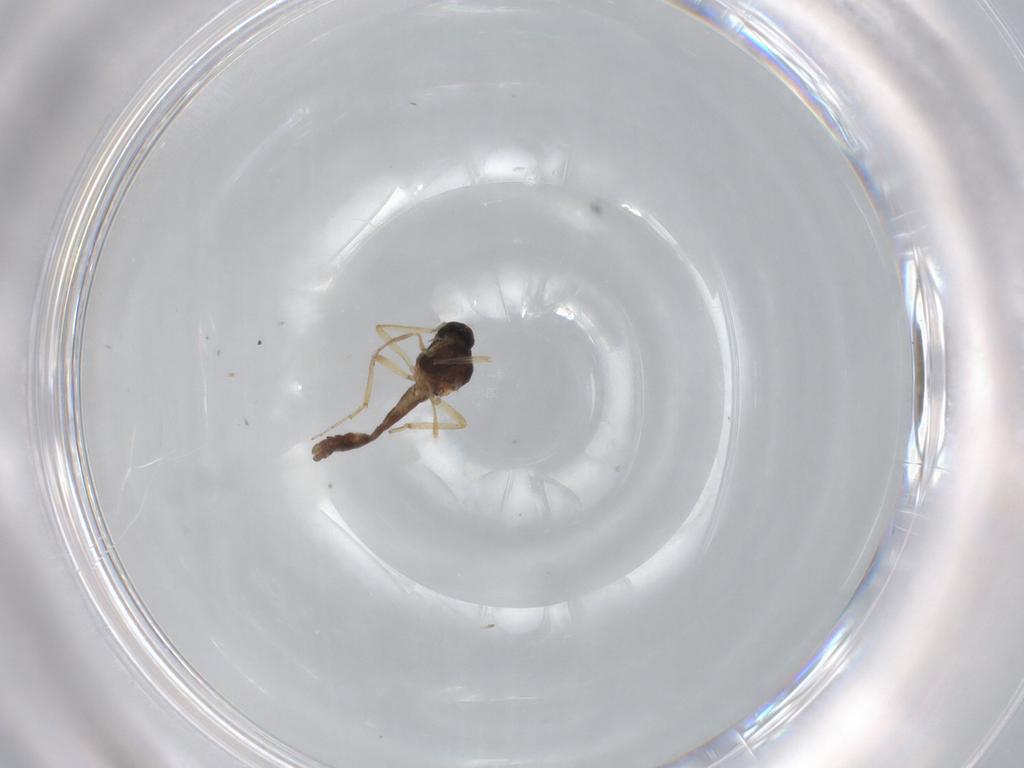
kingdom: Animalia
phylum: Arthropoda
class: Insecta
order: Diptera
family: Ceratopogonidae
